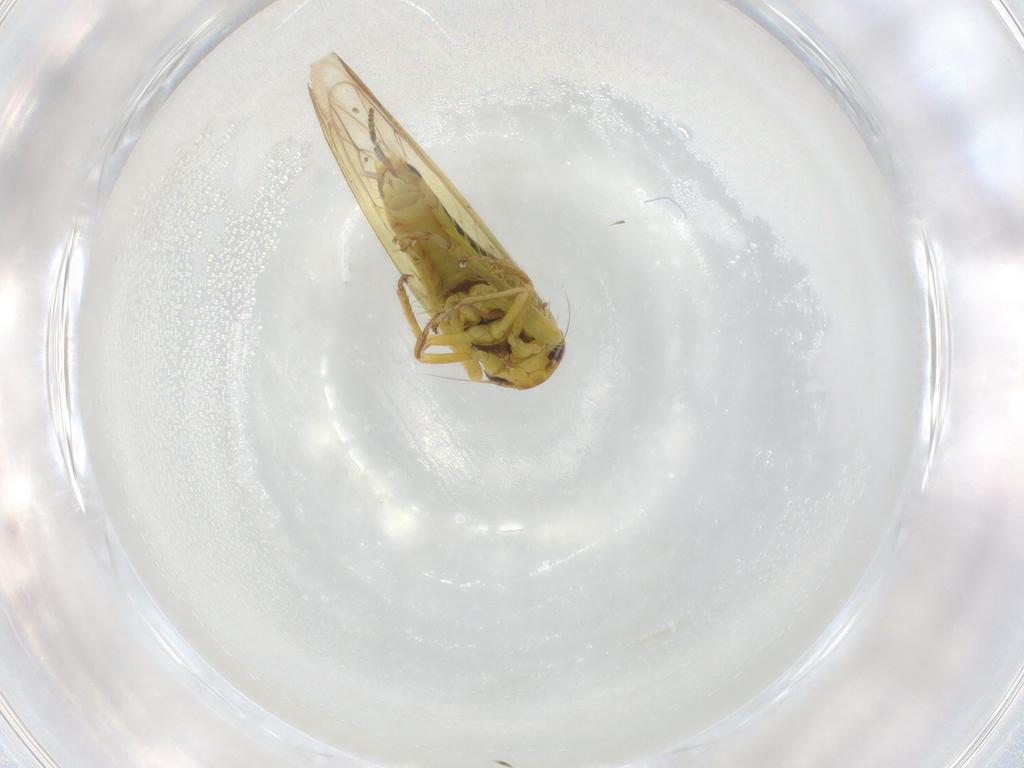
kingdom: Animalia
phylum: Arthropoda
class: Insecta
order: Hemiptera
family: Cicadellidae
